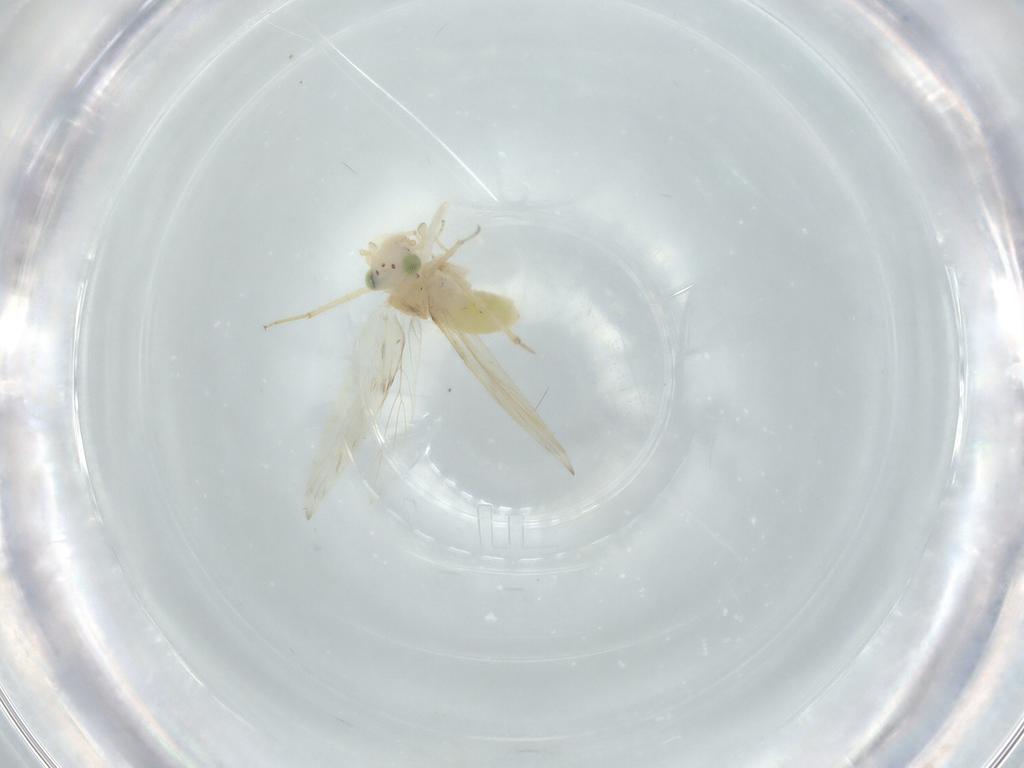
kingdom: Animalia
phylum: Arthropoda
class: Insecta
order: Psocodea
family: Lepidopsocidae
